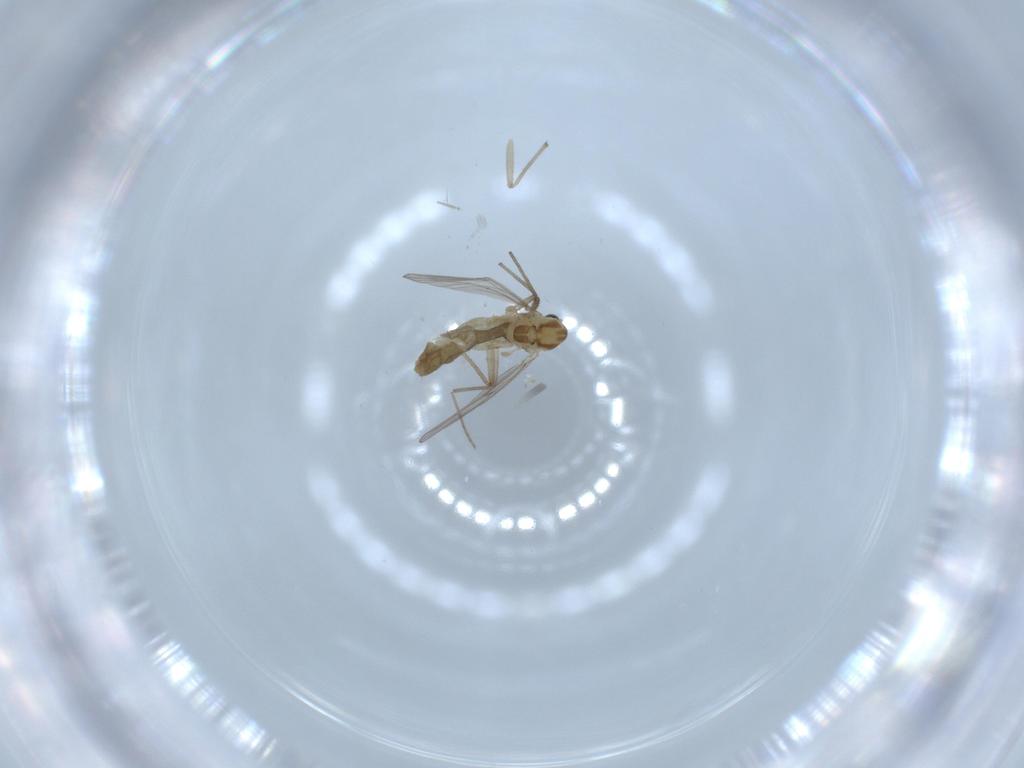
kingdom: Animalia
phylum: Arthropoda
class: Insecta
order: Diptera
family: Chironomidae
